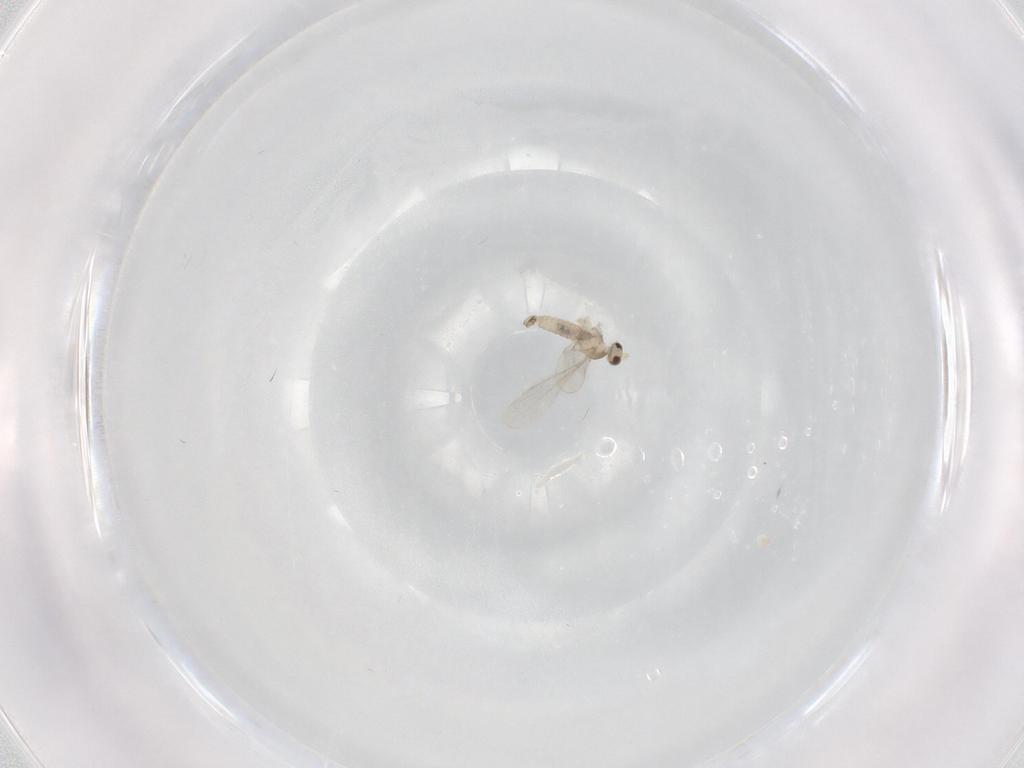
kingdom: Animalia
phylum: Arthropoda
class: Insecta
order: Diptera
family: Cecidomyiidae
